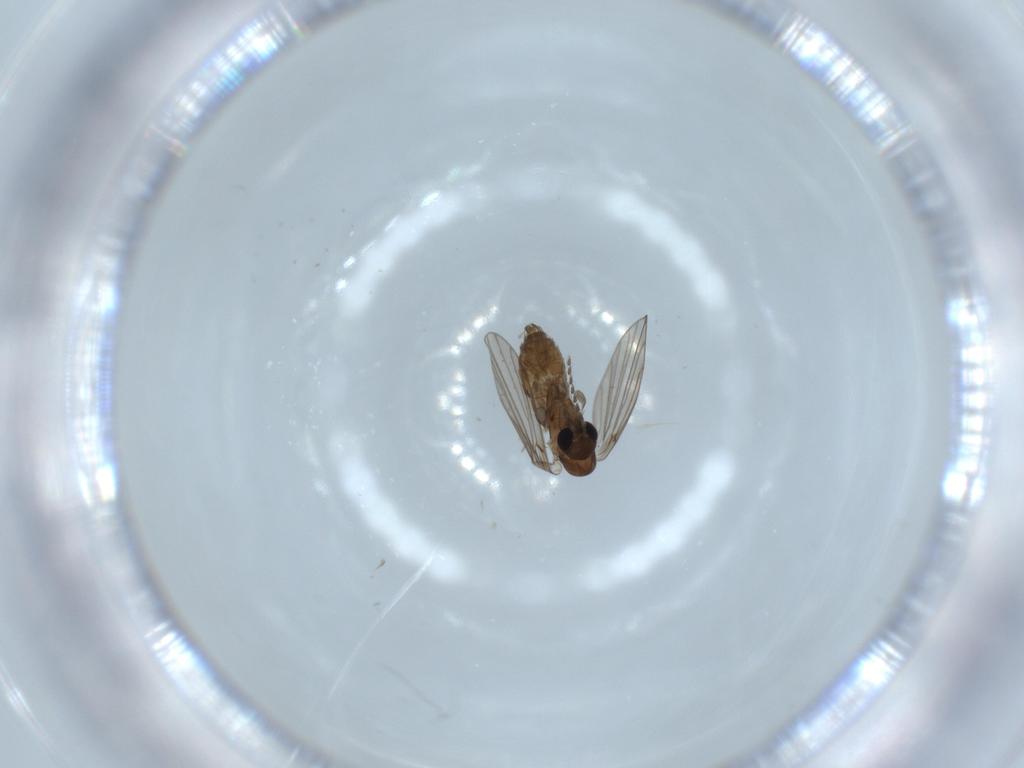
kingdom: Animalia
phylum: Arthropoda
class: Insecta
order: Diptera
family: Psychodidae
